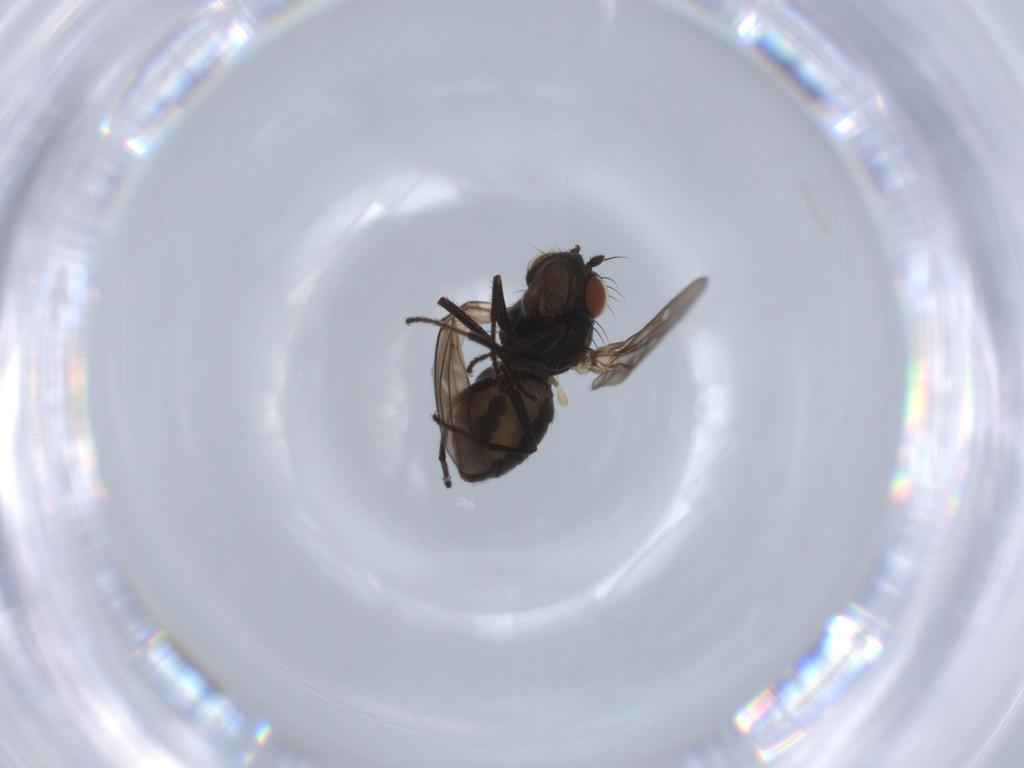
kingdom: Animalia
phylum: Arthropoda
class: Insecta
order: Diptera
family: Ephydridae
